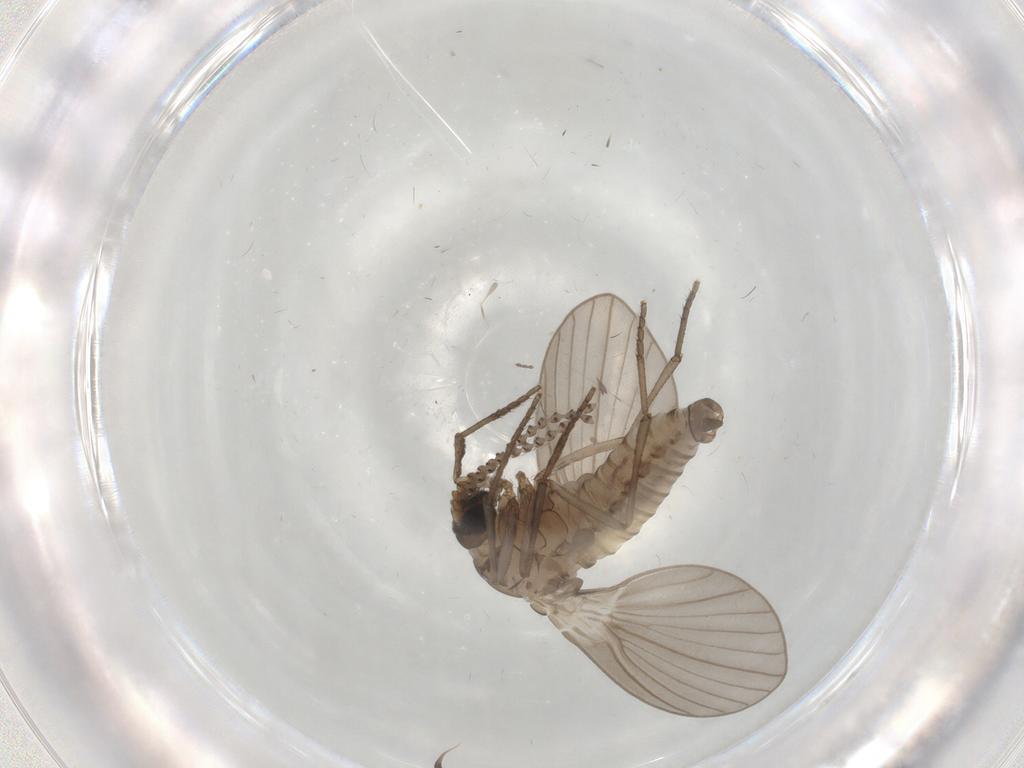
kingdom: Animalia
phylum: Arthropoda
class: Insecta
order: Diptera
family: Psychodidae
